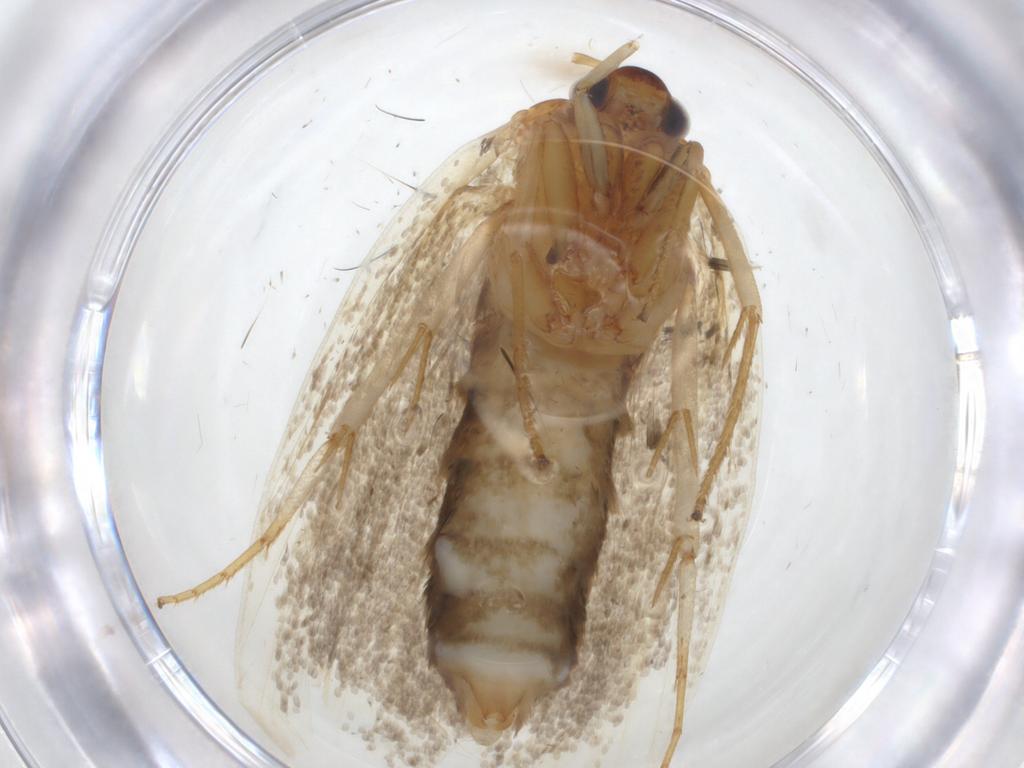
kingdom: Animalia
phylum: Arthropoda
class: Insecta
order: Lepidoptera
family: Oecophoridae
